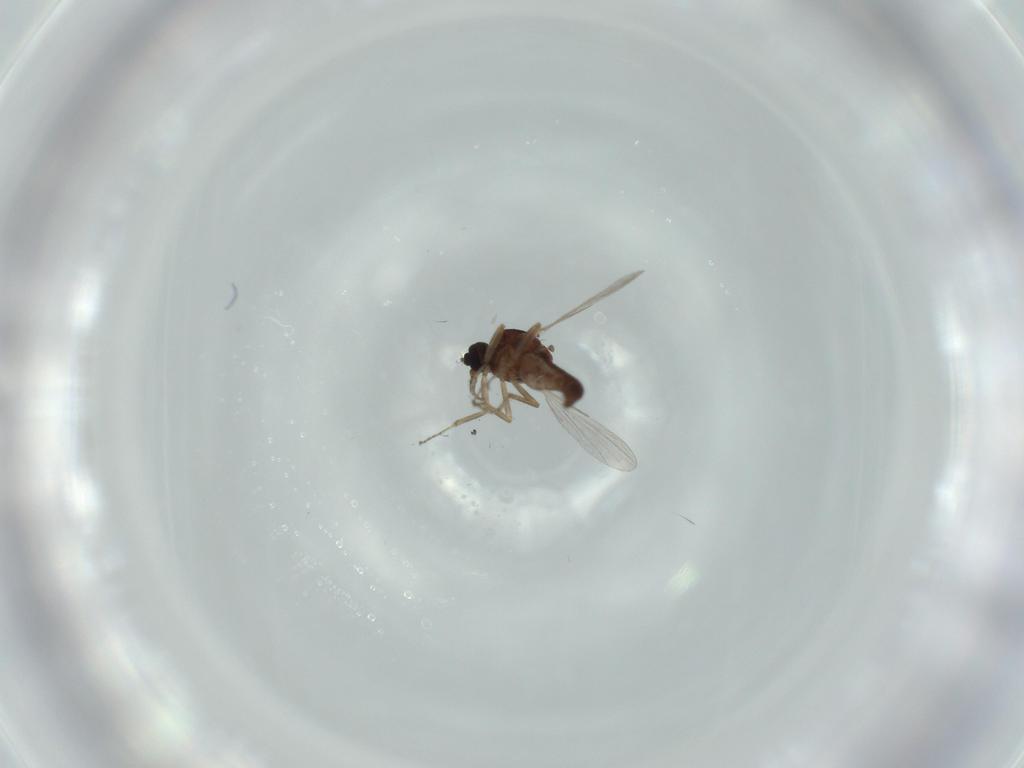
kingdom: Animalia
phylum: Arthropoda
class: Insecta
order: Diptera
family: Ceratopogonidae
